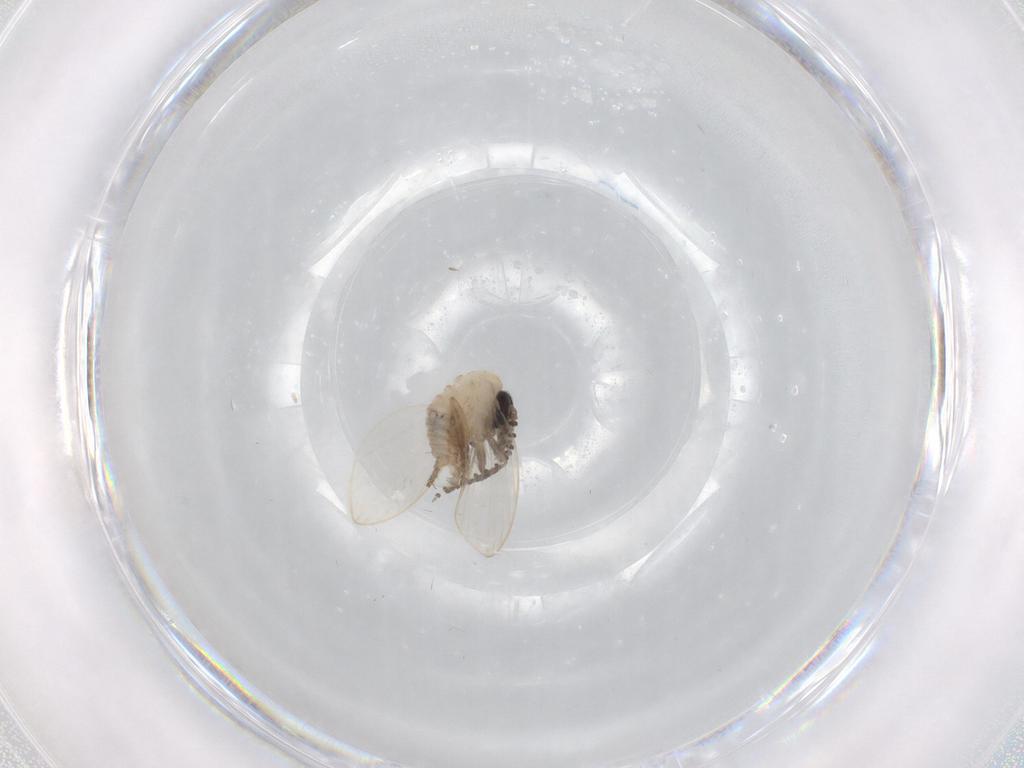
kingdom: Animalia
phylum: Arthropoda
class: Insecta
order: Diptera
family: Psychodidae
